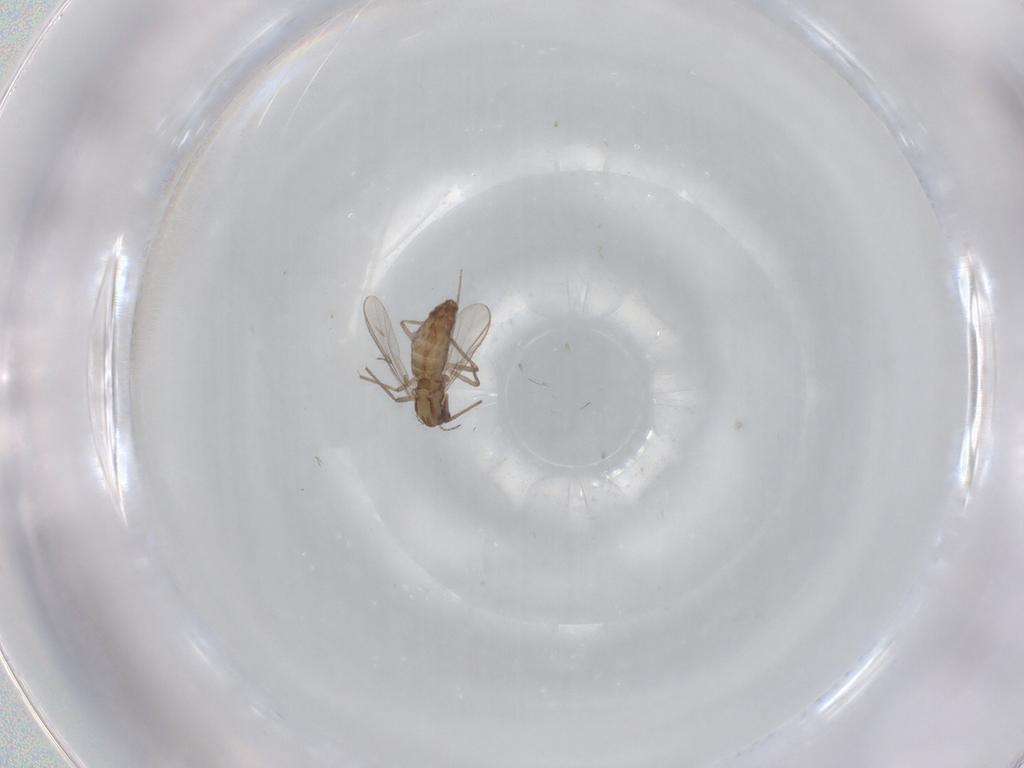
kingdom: Animalia
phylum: Arthropoda
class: Insecta
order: Diptera
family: Chironomidae
